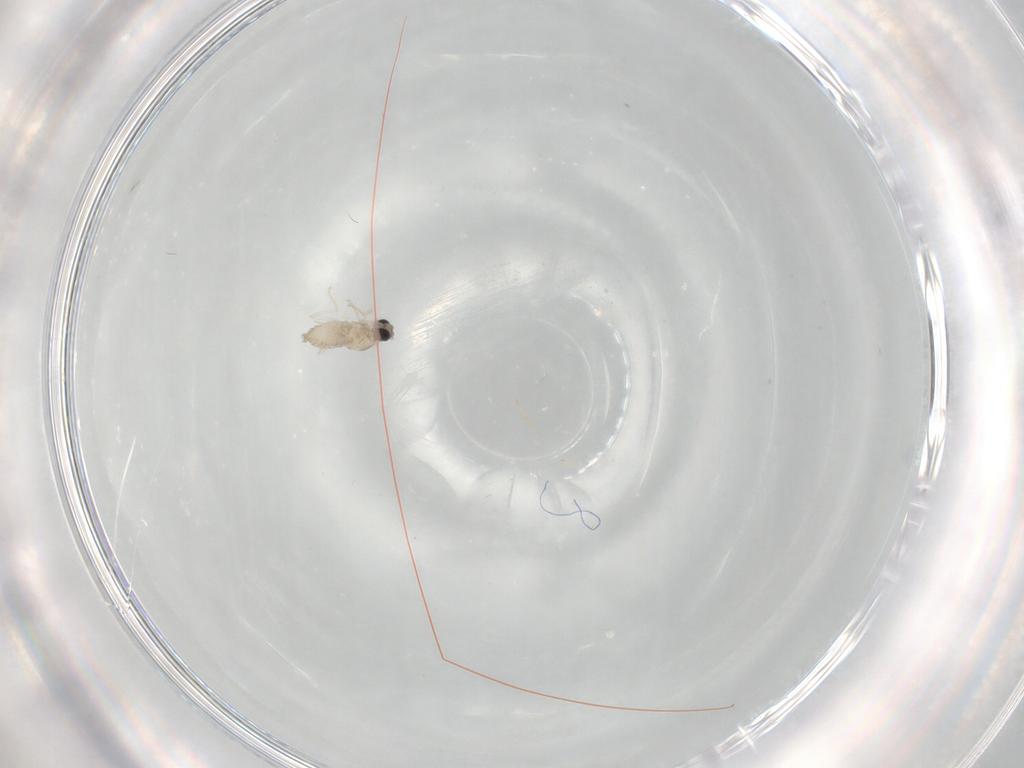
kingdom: Animalia
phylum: Arthropoda
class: Insecta
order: Diptera
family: Cecidomyiidae
